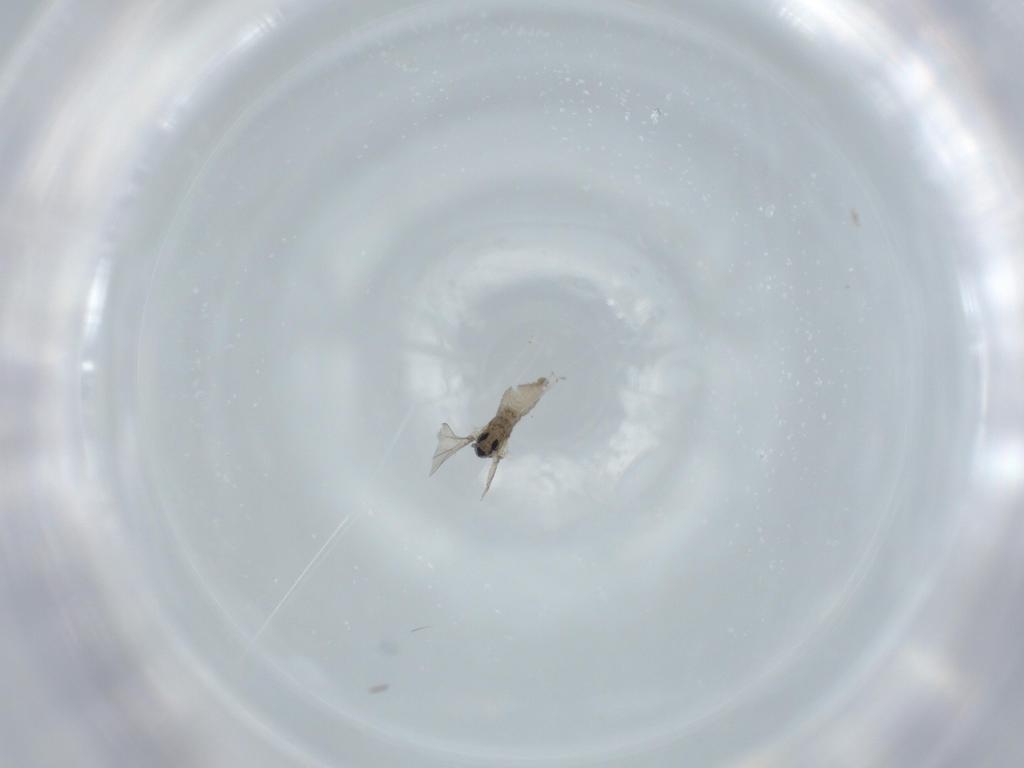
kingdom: Animalia
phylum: Arthropoda
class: Insecta
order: Diptera
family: Cecidomyiidae
